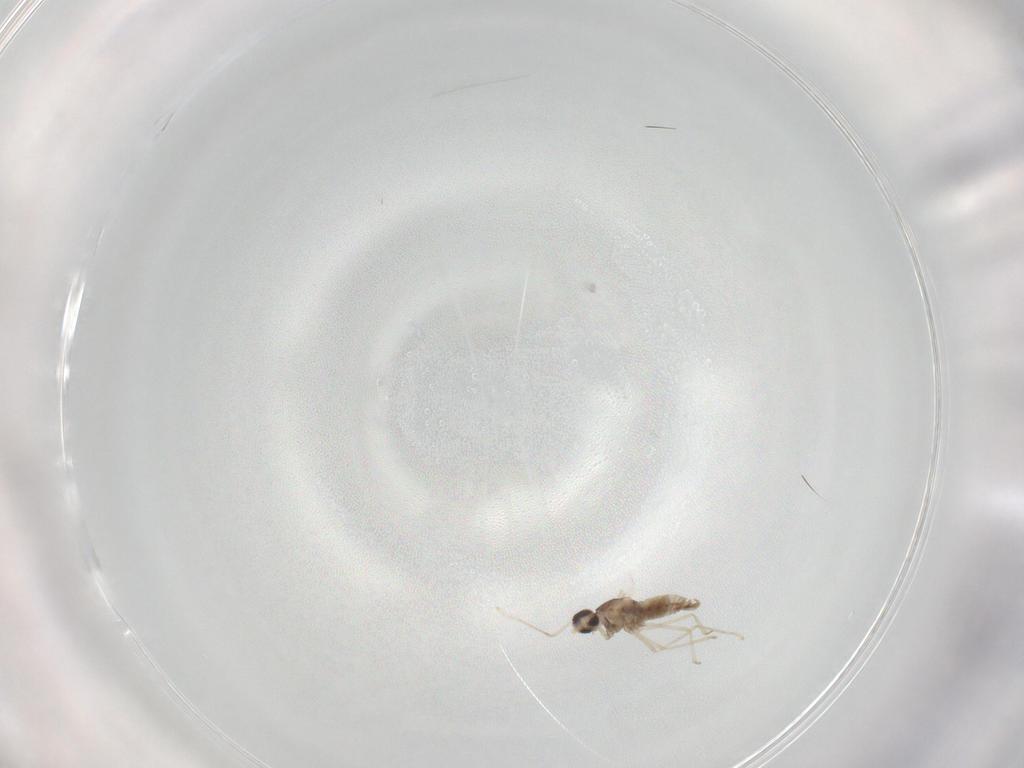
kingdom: Animalia
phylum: Arthropoda
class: Insecta
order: Diptera
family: Cecidomyiidae
